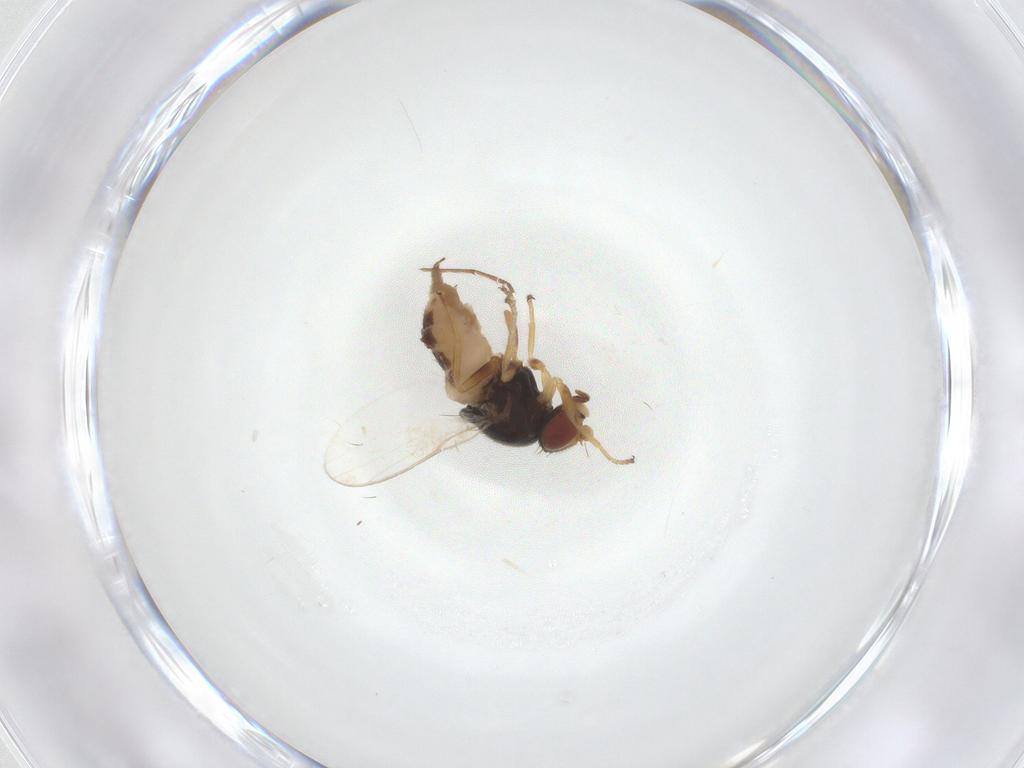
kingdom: Animalia
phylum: Arthropoda
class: Insecta
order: Diptera
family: Chloropidae
